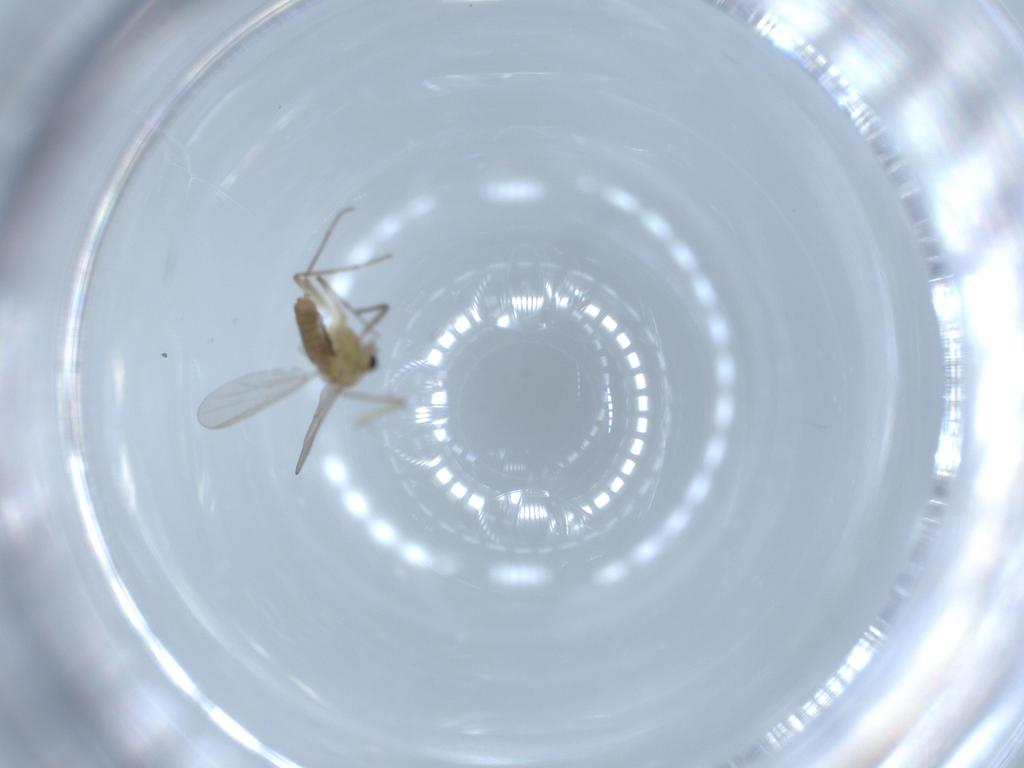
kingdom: Animalia
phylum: Arthropoda
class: Insecta
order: Diptera
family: Chironomidae
